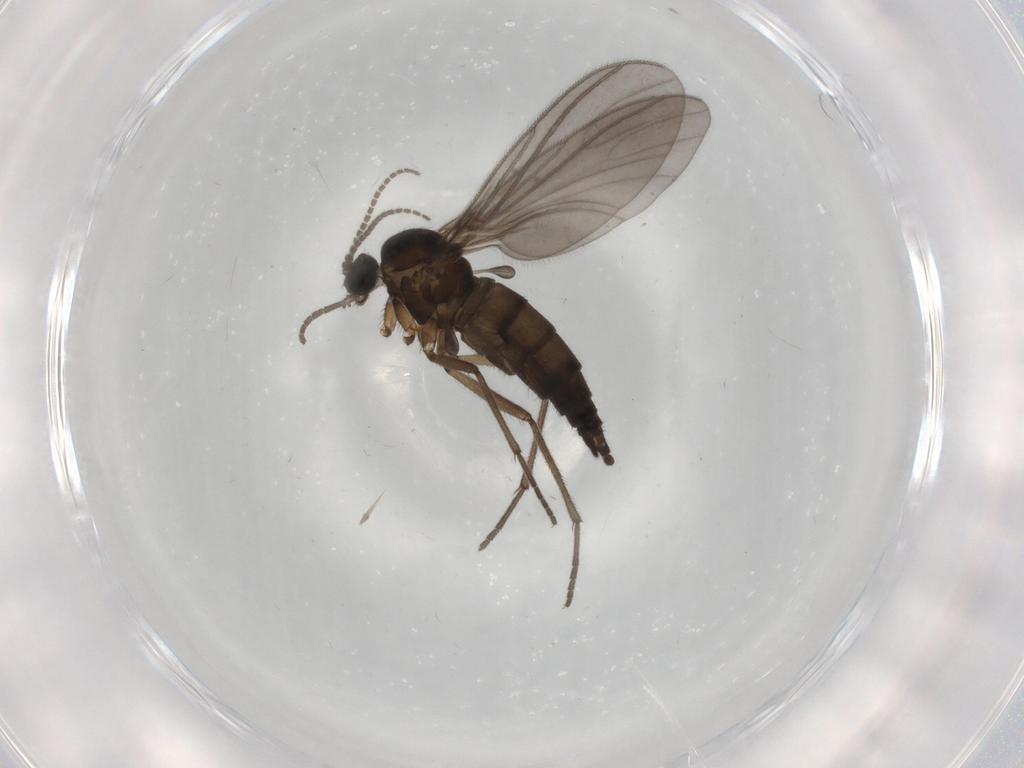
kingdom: Animalia
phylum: Arthropoda
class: Insecta
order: Diptera
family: Sciaridae
